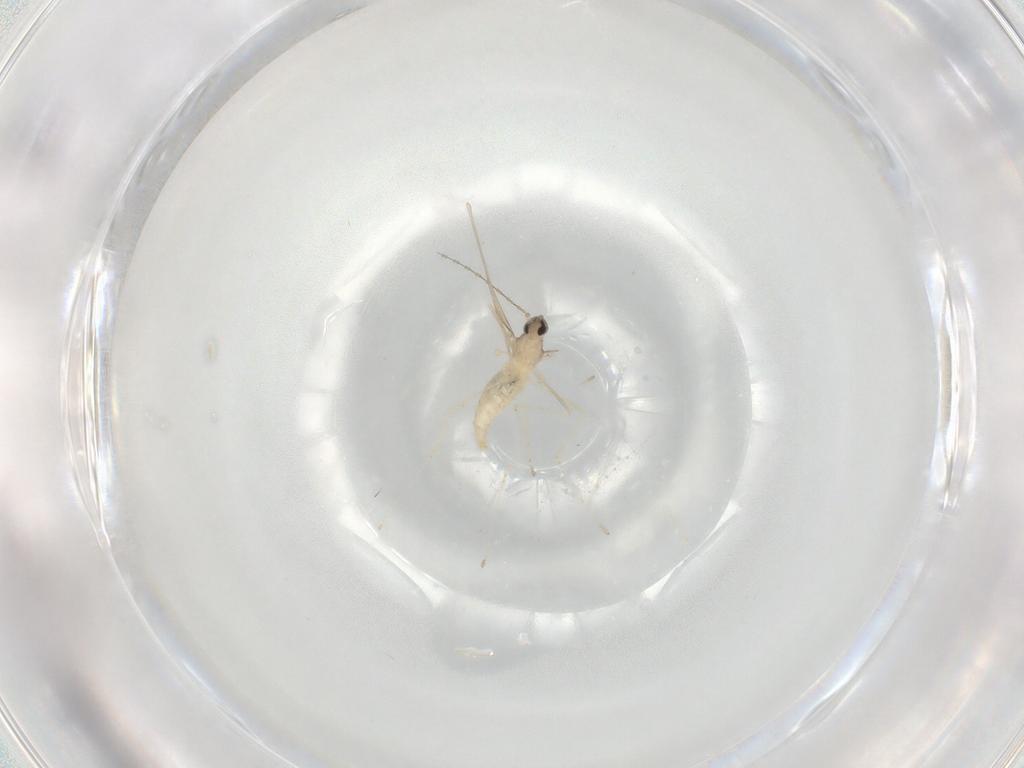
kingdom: Animalia
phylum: Arthropoda
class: Insecta
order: Diptera
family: Cecidomyiidae
